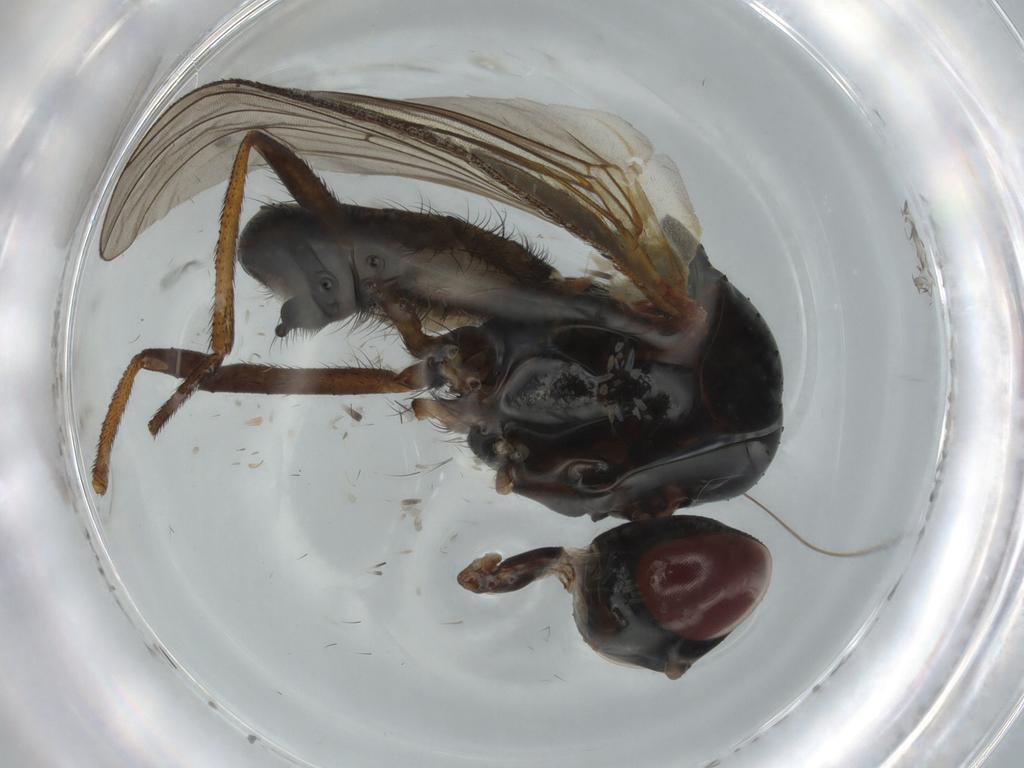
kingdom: Animalia
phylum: Arthropoda
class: Insecta
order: Diptera
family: Anthomyiidae
